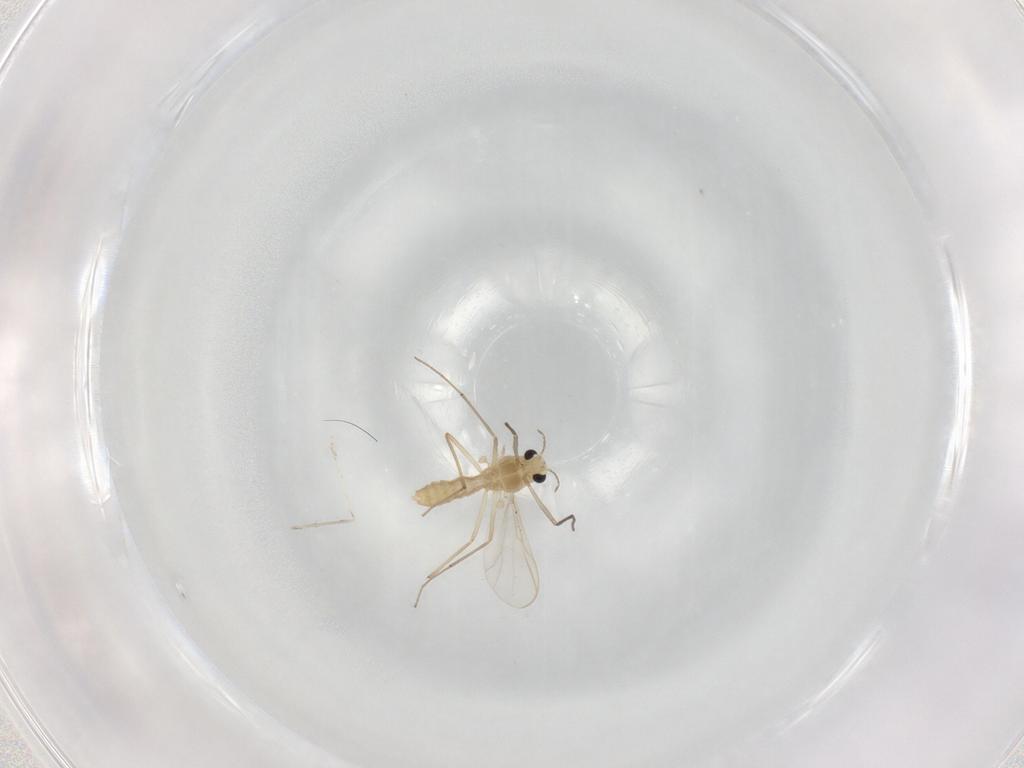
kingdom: Animalia
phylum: Arthropoda
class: Insecta
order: Diptera
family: Chironomidae
